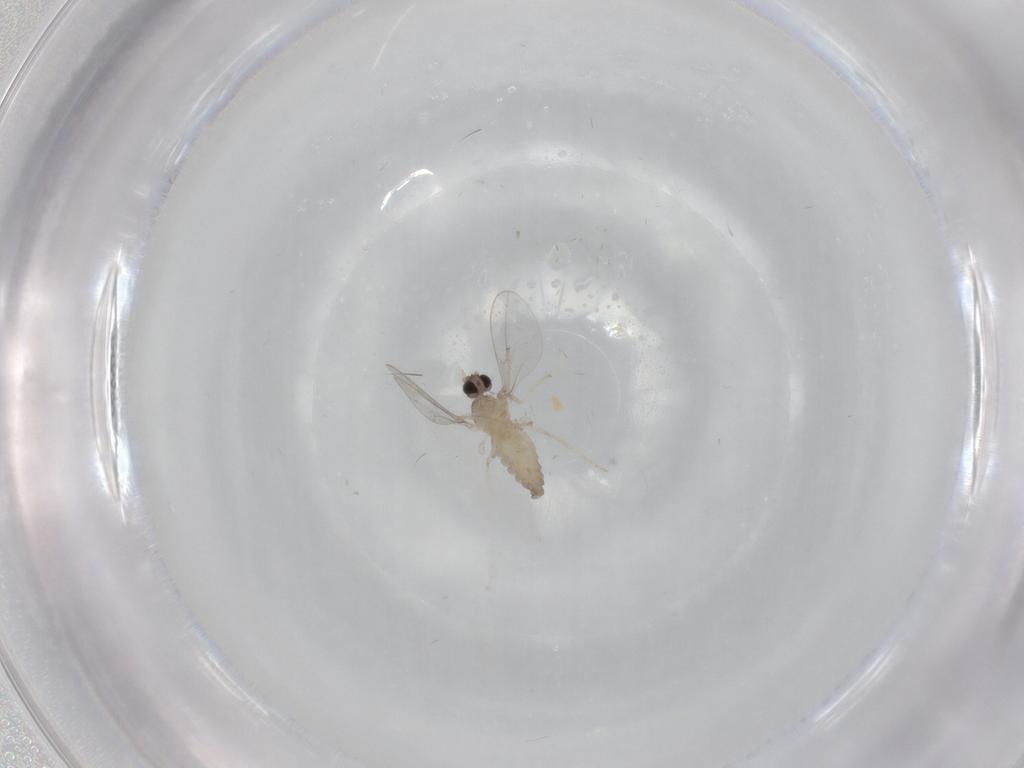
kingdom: Animalia
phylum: Arthropoda
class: Insecta
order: Diptera
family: Cecidomyiidae
